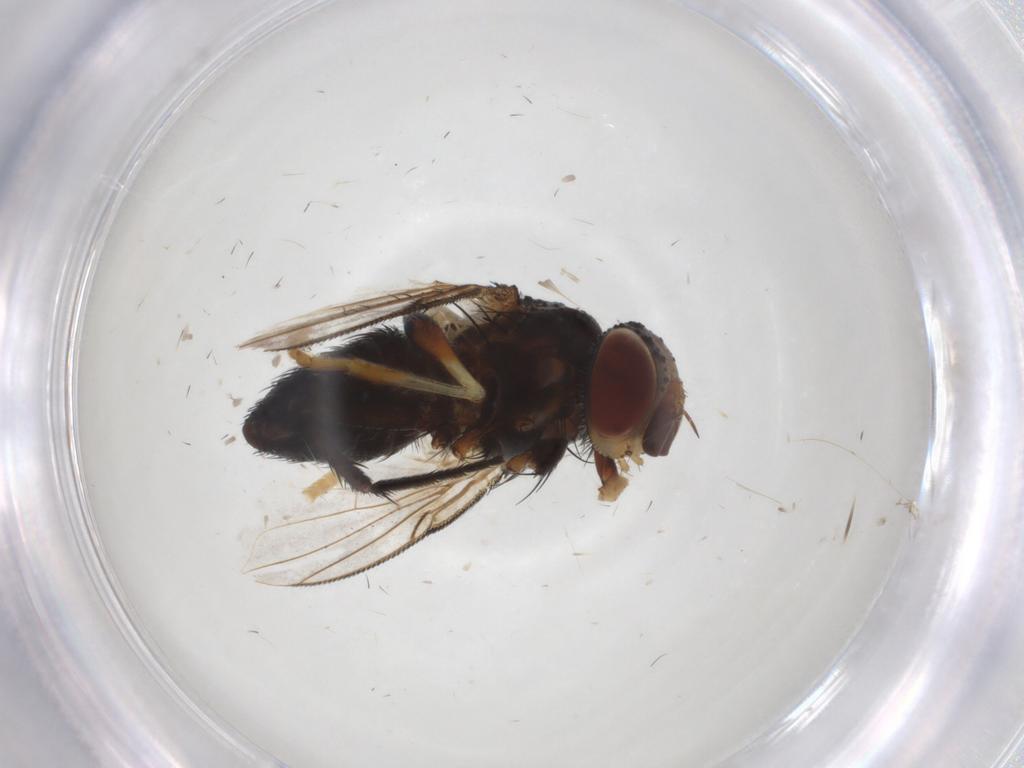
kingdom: Animalia
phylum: Arthropoda
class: Insecta
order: Diptera
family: Syrphidae
